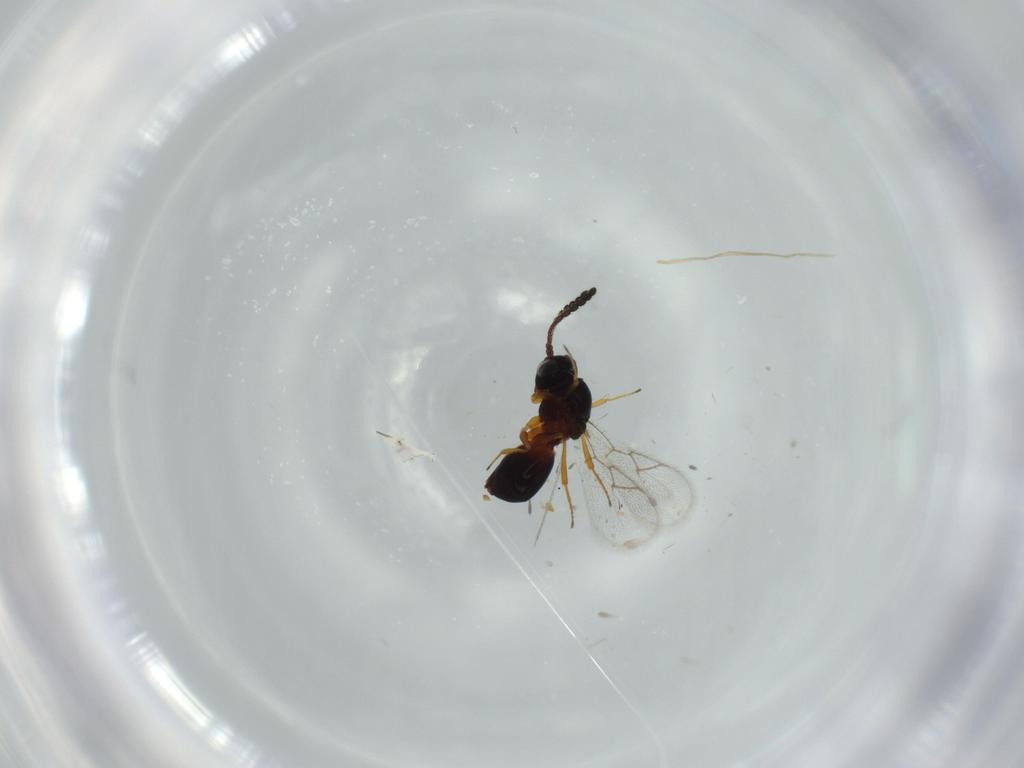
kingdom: Animalia
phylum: Arthropoda
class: Insecta
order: Hymenoptera
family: Figitidae
